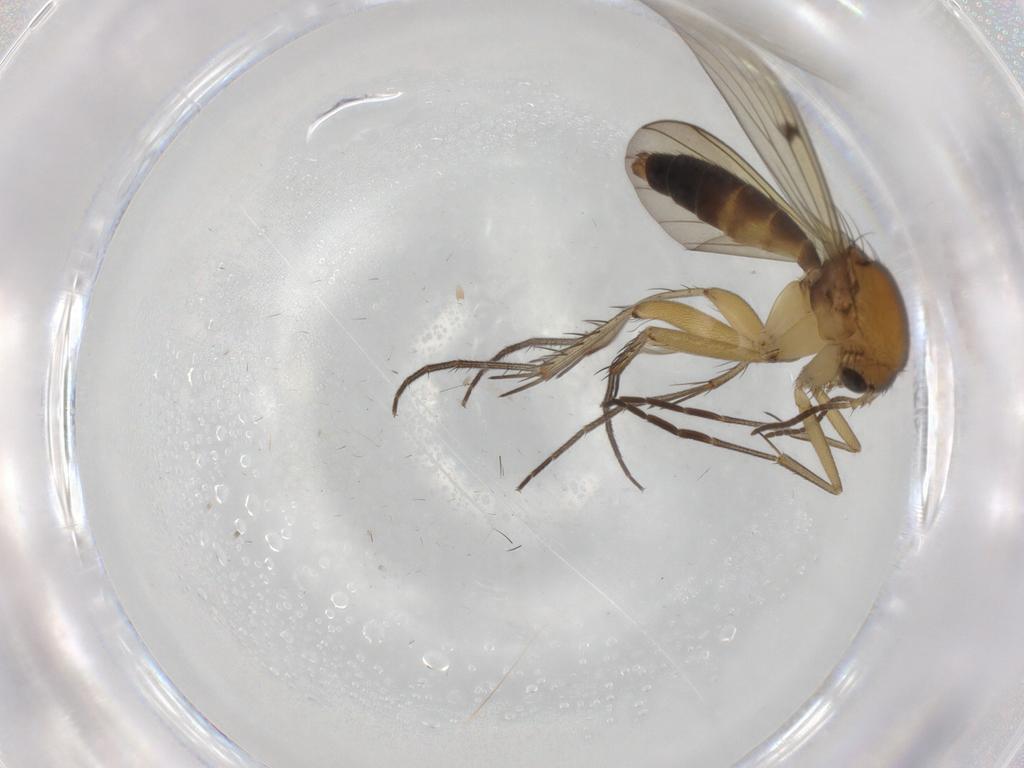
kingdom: Animalia
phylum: Arthropoda
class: Insecta
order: Diptera
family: Mycetophilidae
